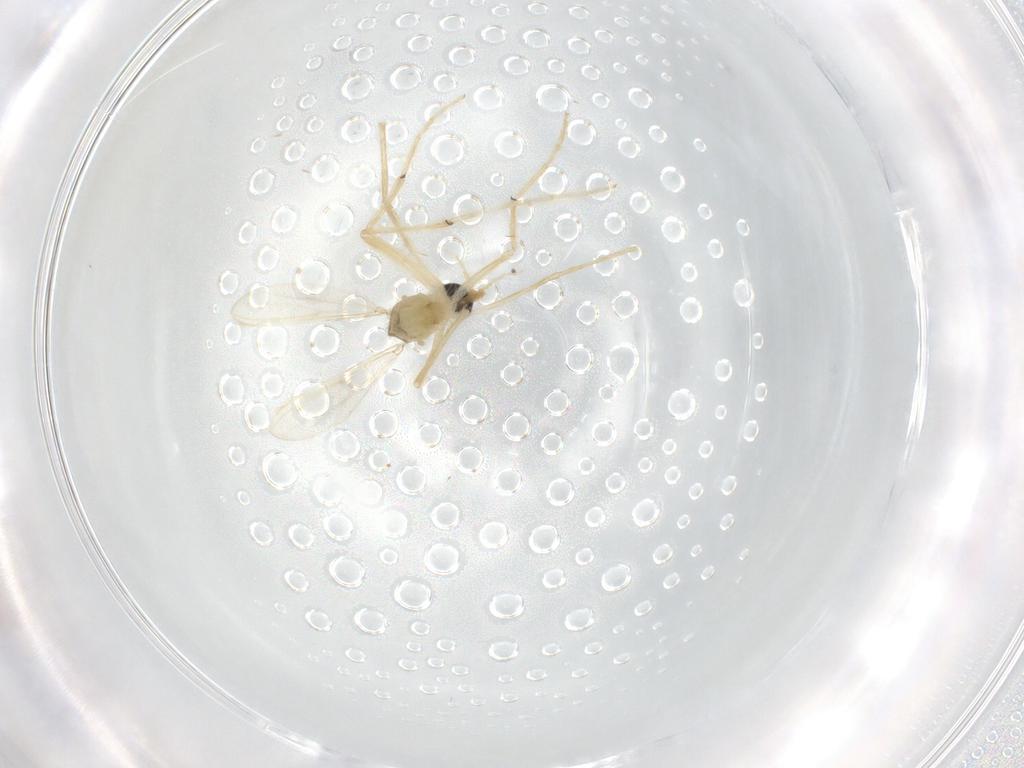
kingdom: Animalia
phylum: Arthropoda
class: Insecta
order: Diptera
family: Chironomidae
